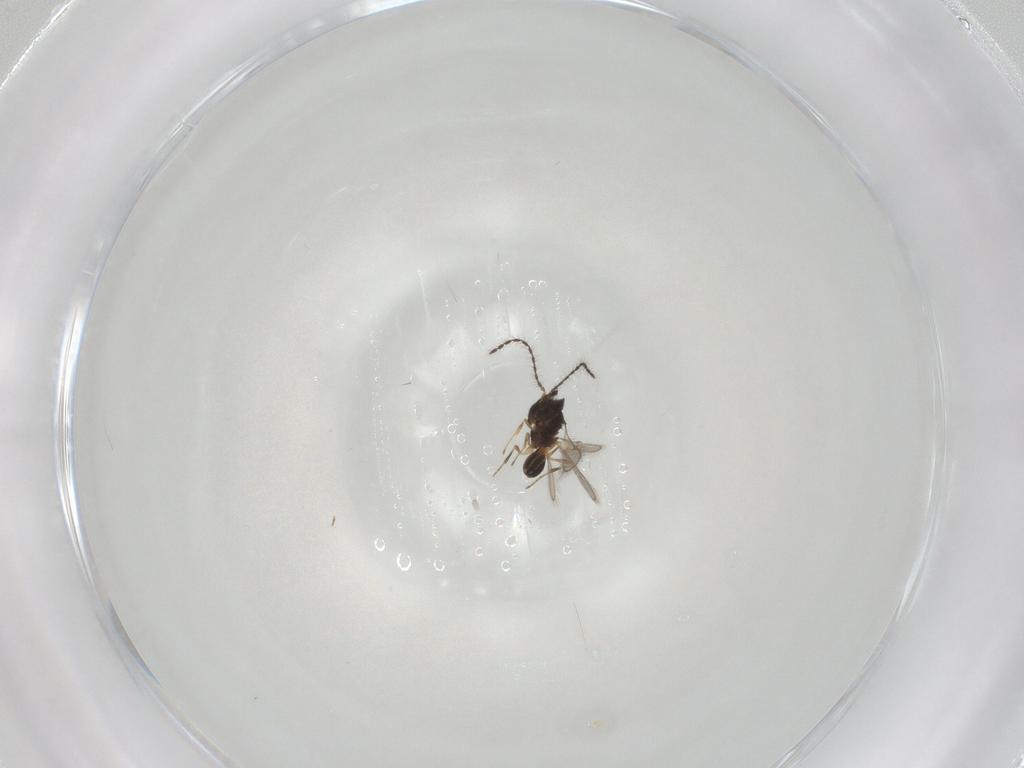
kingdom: Animalia
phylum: Arthropoda
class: Insecta
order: Hymenoptera
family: Scelionidae
